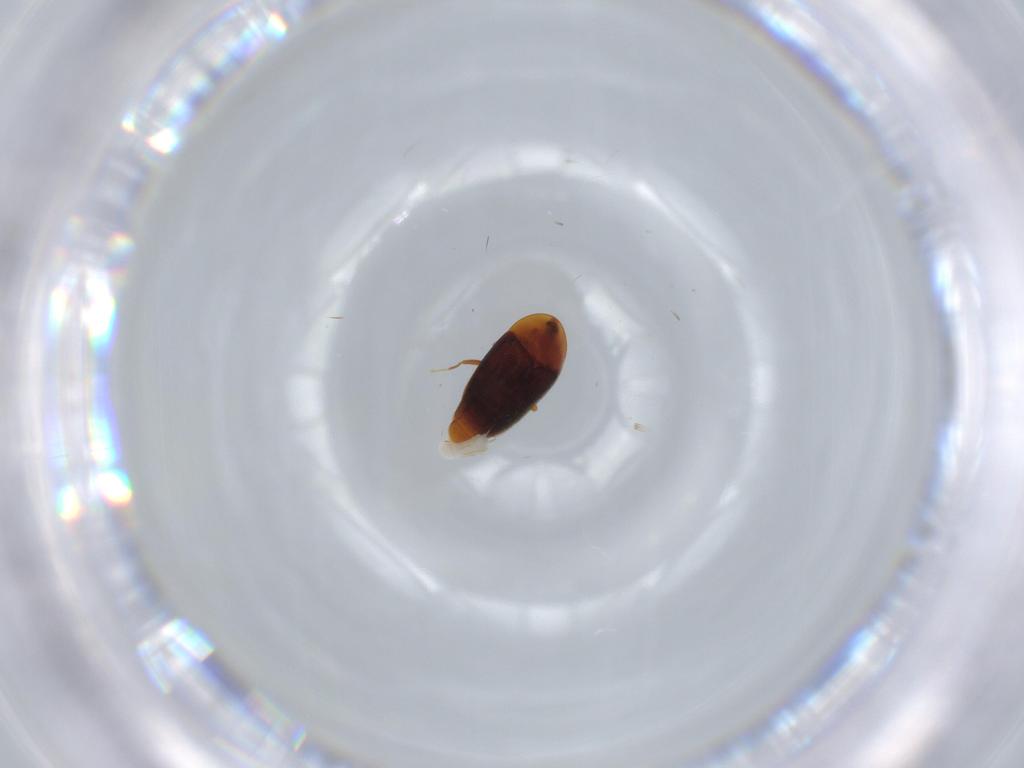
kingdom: Animalia
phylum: Arthropoda
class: Insecta
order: Coleoptera
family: Corylophidae
